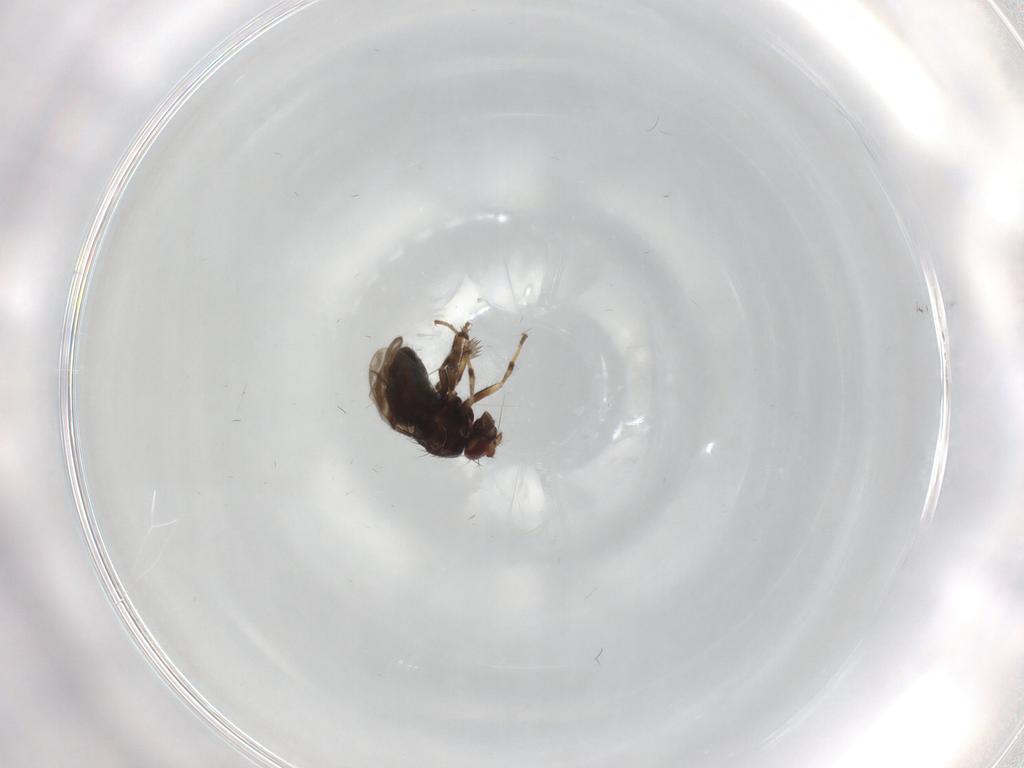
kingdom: Animalia
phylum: Arthropoda
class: Insecta
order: Diptera
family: Sphaeroceridae
